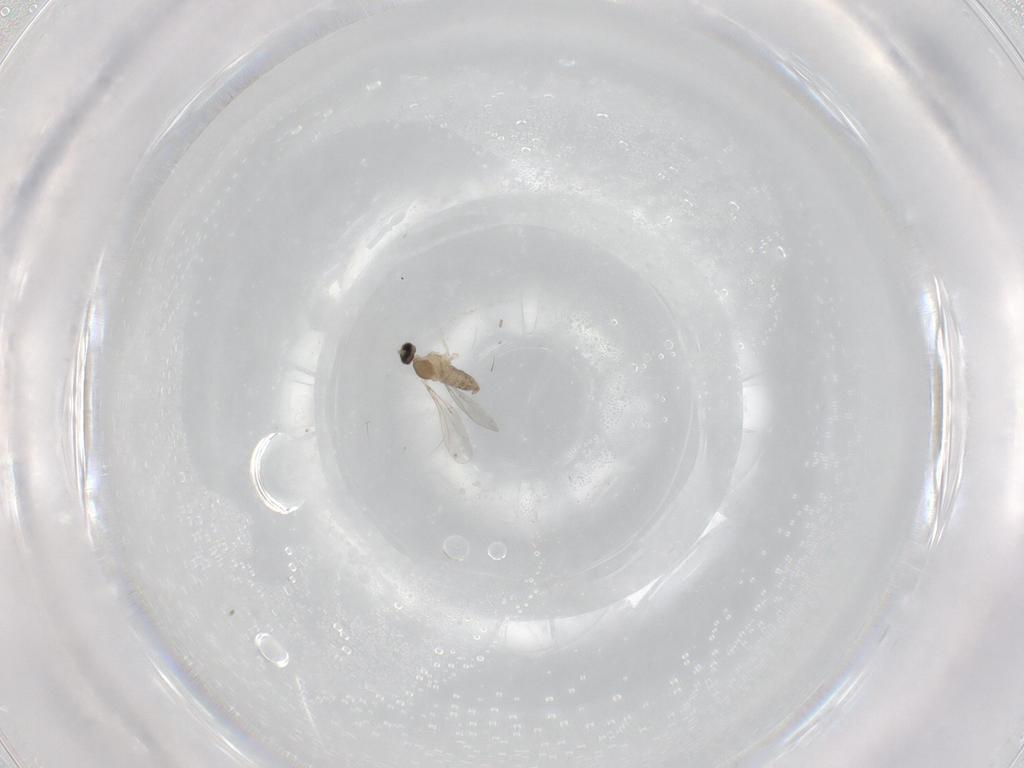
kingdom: Animalia
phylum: Arthropoda
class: Insecta
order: Diptera
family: Cecidomyiidae
